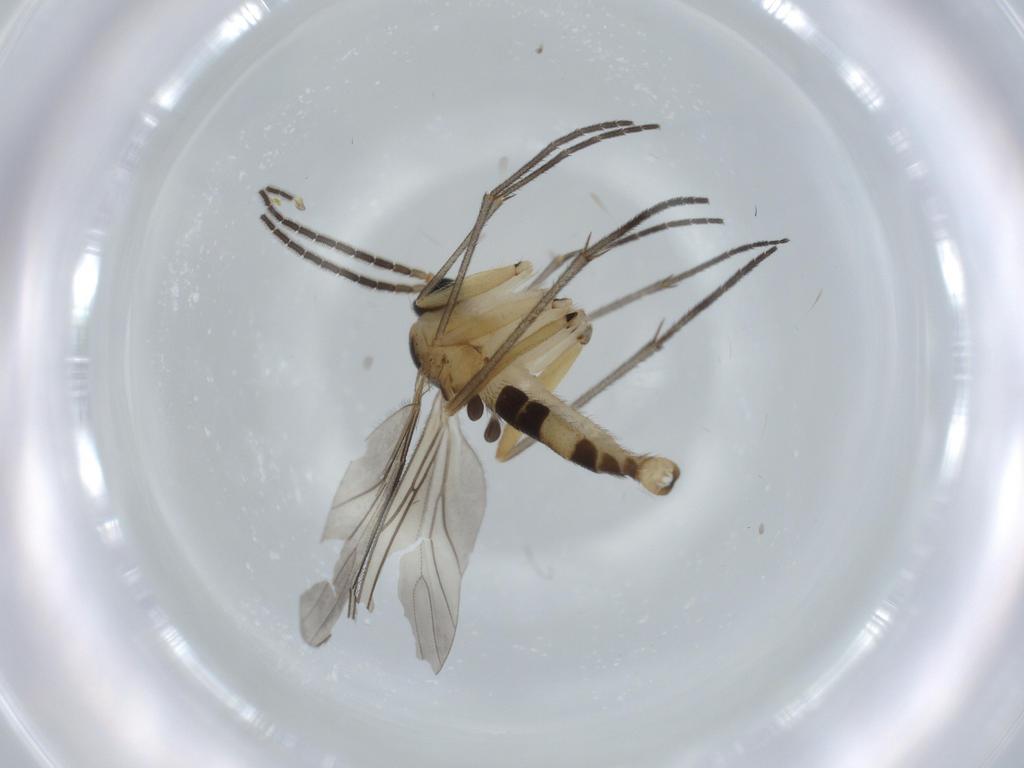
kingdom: Animalia
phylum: Arthropoda
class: Insecta
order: Diptera
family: Sciaridae
